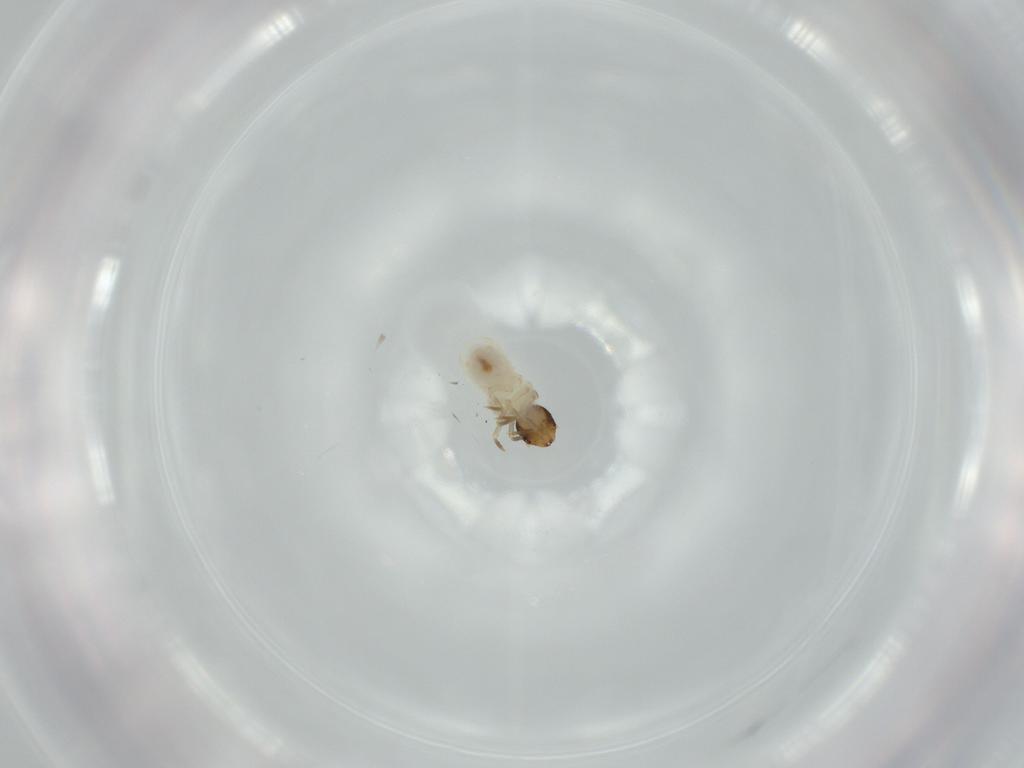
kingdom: Animalia
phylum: Arthropoda
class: Insecta
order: Coleoptera
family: Chrysomelidae
